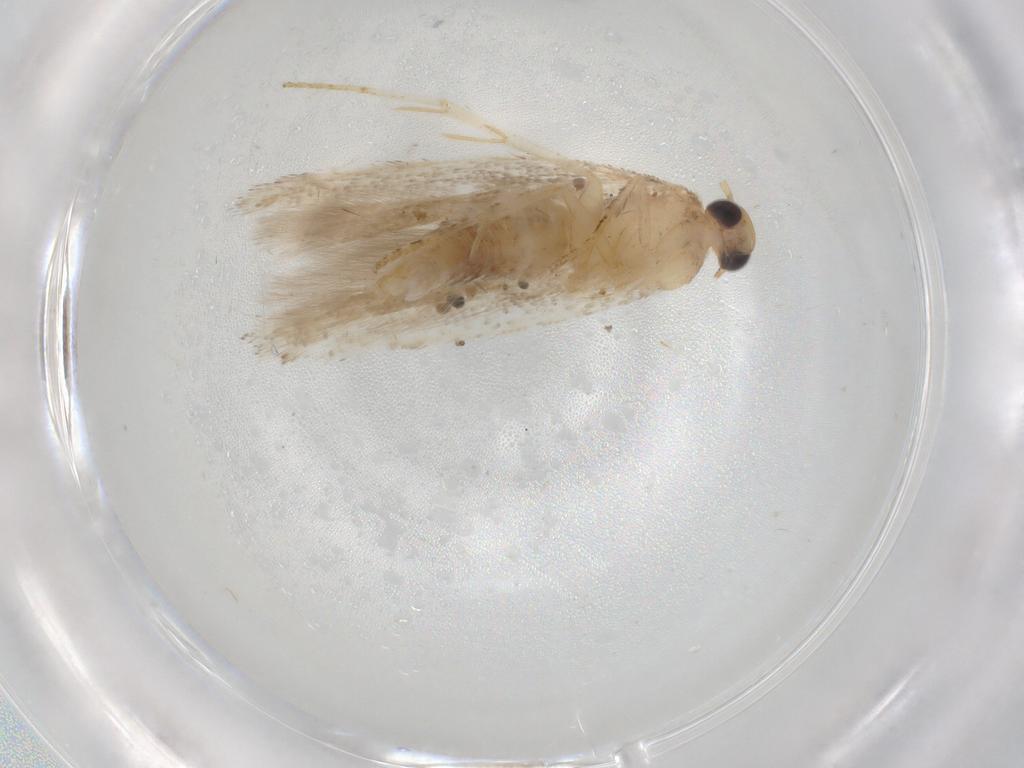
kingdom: Animalia
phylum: Arthropoda
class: Insecta
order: Lepidoptera
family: Gelechiidae
